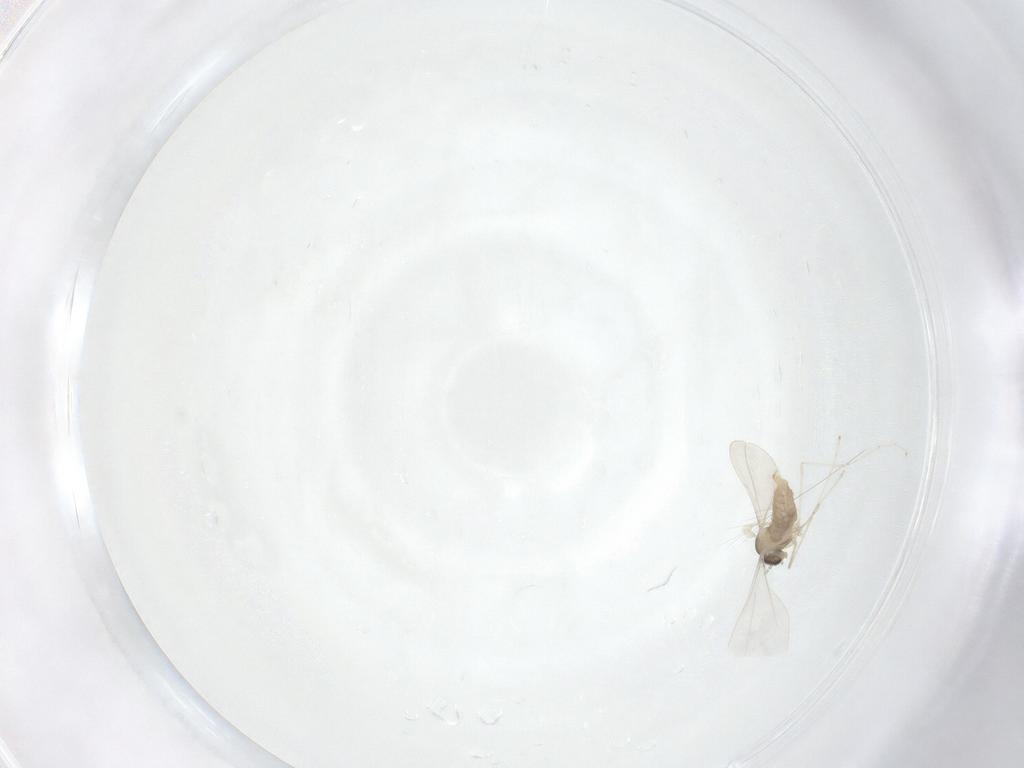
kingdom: Animalia
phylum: Arthropoda
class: Insecta
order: Diptera
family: Cecidomyiidae
